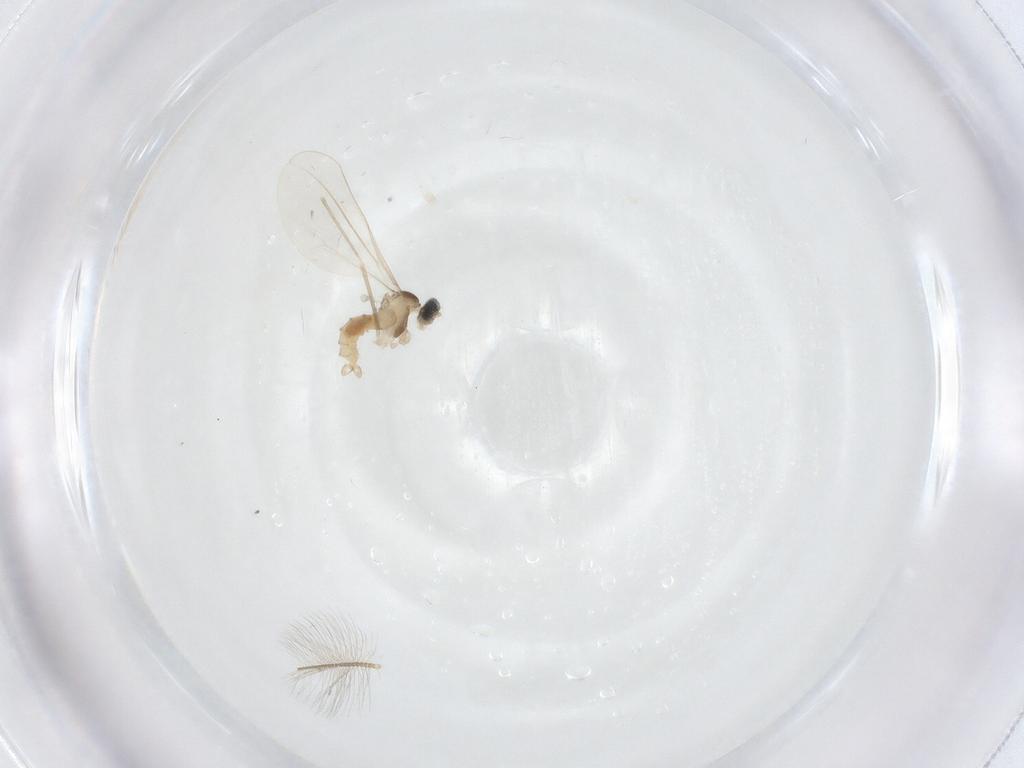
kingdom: Animalia
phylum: Arthropoda
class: Insecta
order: Diptera
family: Cecidomyiidae
